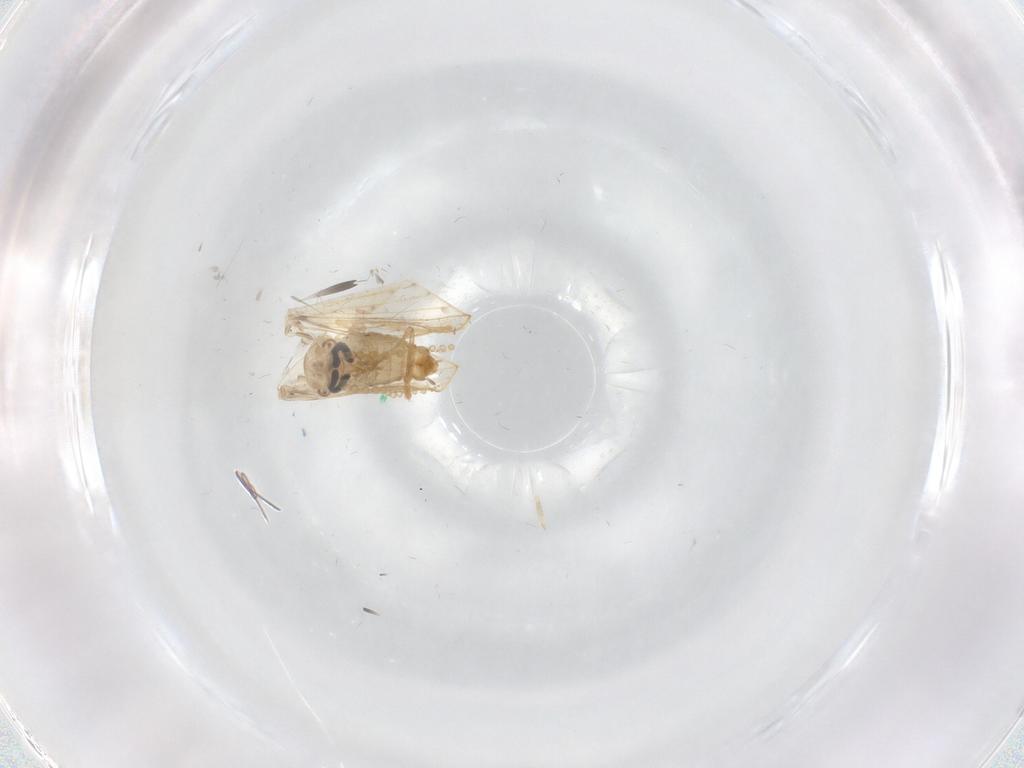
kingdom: Animalia
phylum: Arthropoda
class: Insecta
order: Diptera
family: Psychodidae
